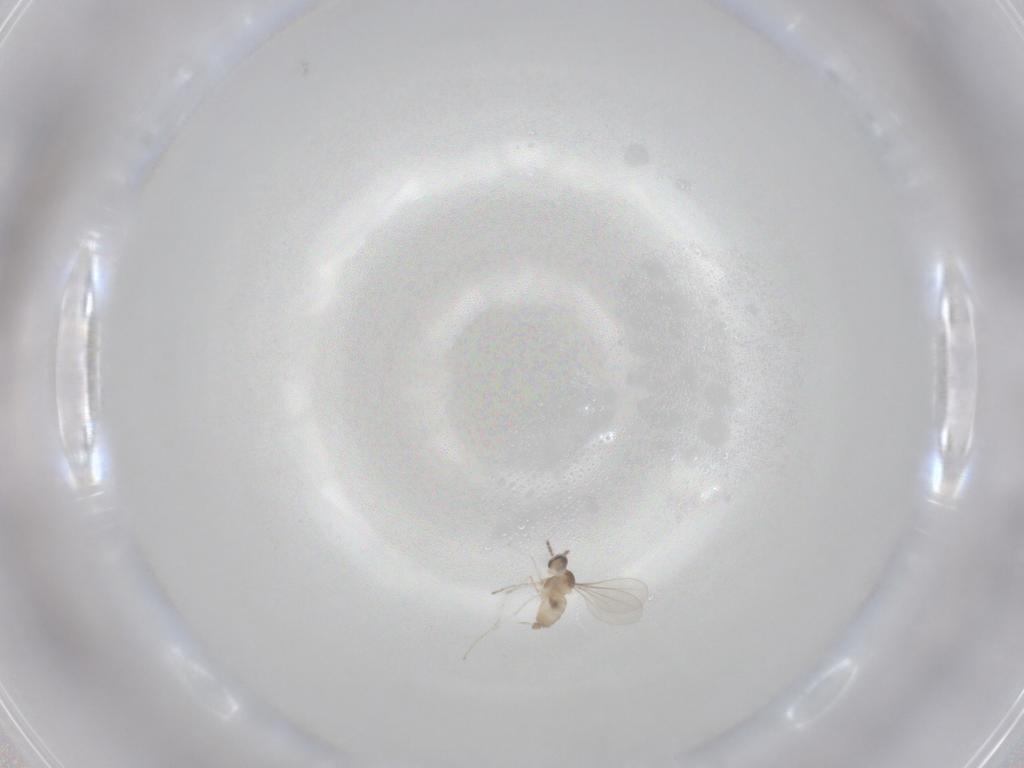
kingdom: Animalia
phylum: Arthropoda
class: Insecta
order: Diptera
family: Cecidomyiidae
